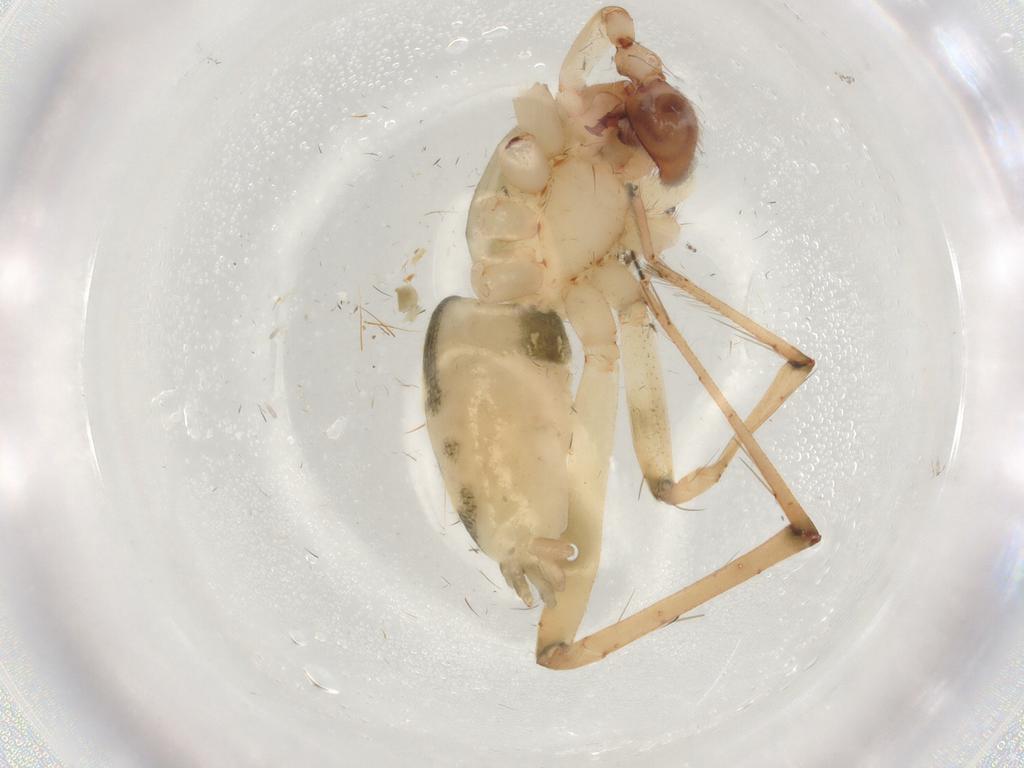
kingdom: Animalia
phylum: Arthropoda
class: Arachnida
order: Araneae
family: Anyphaenidae
